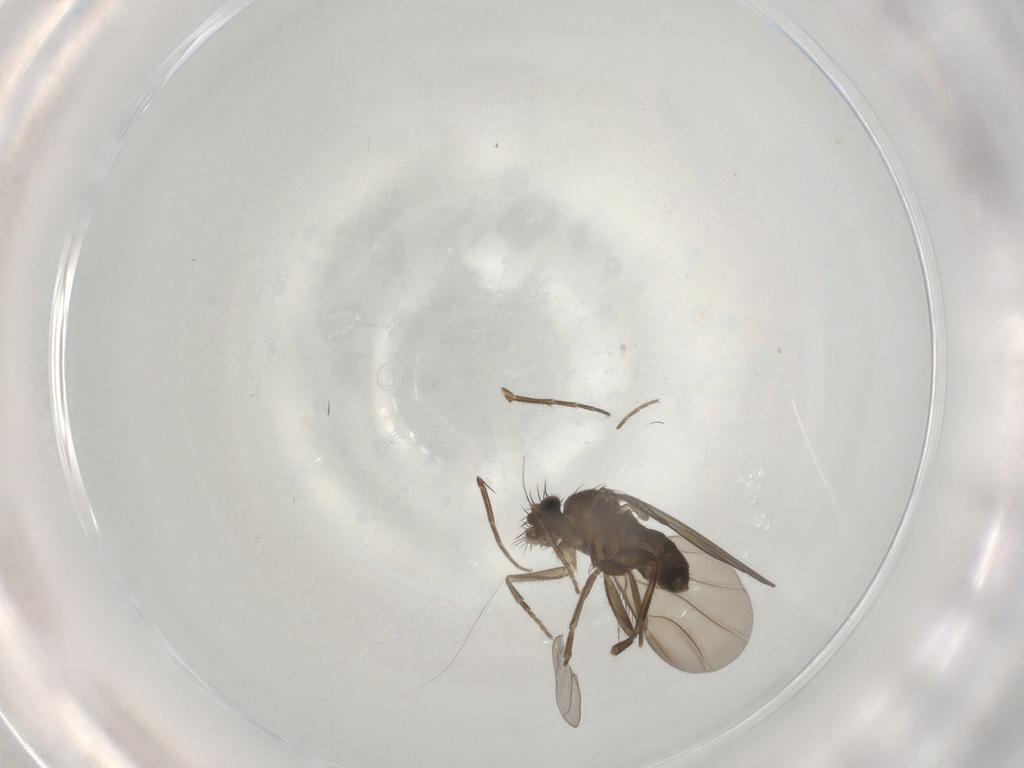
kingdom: Animalia
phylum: Arthropoda
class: Insecta
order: Diptera
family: Phoridae
